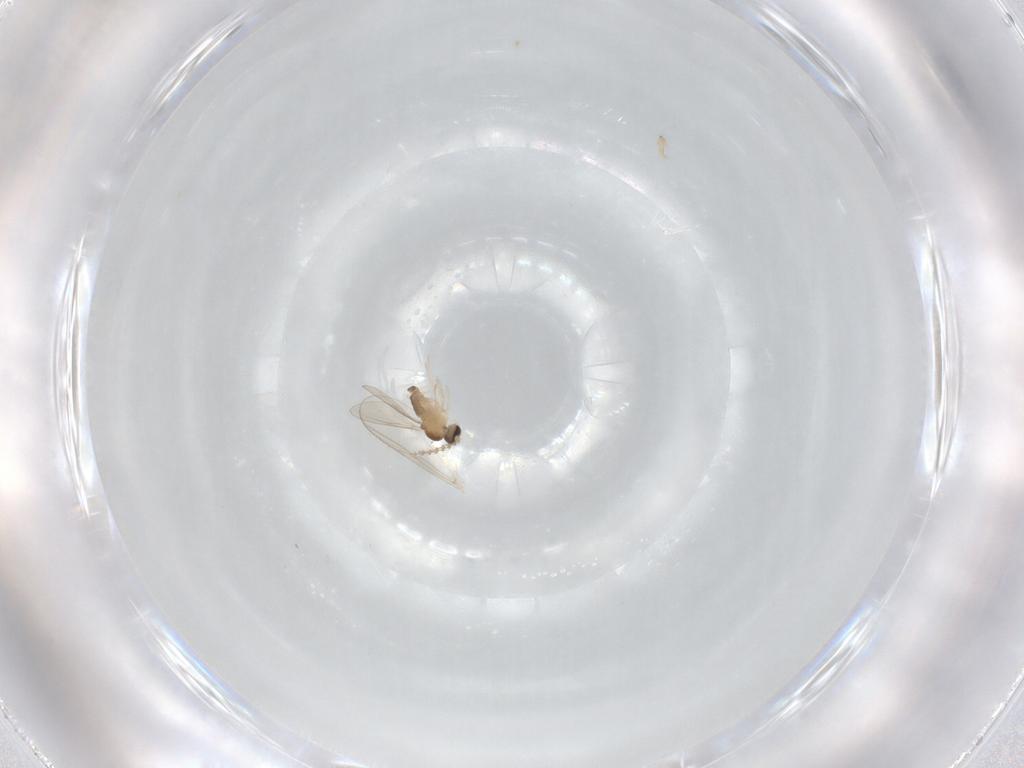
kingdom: Animalia
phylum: Arthropoda
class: Insecta
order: Diptera
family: Cecidomyiidae
